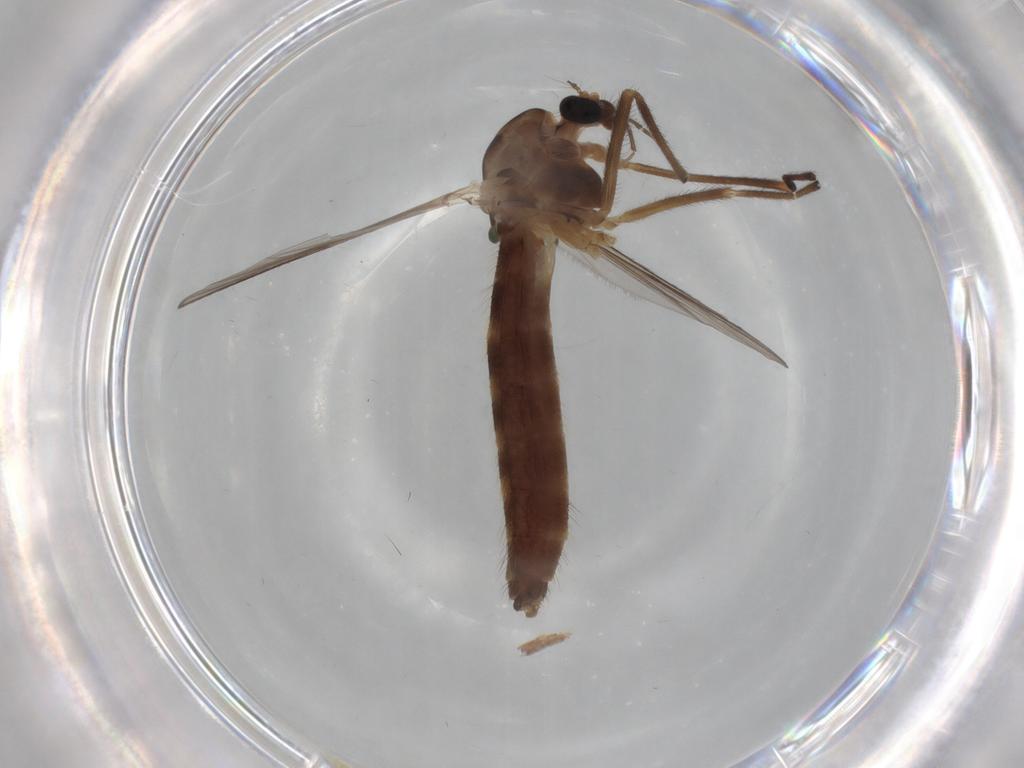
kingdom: Animalia
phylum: Arthropoda
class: Insecta
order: Diptera
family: Chironomidae
